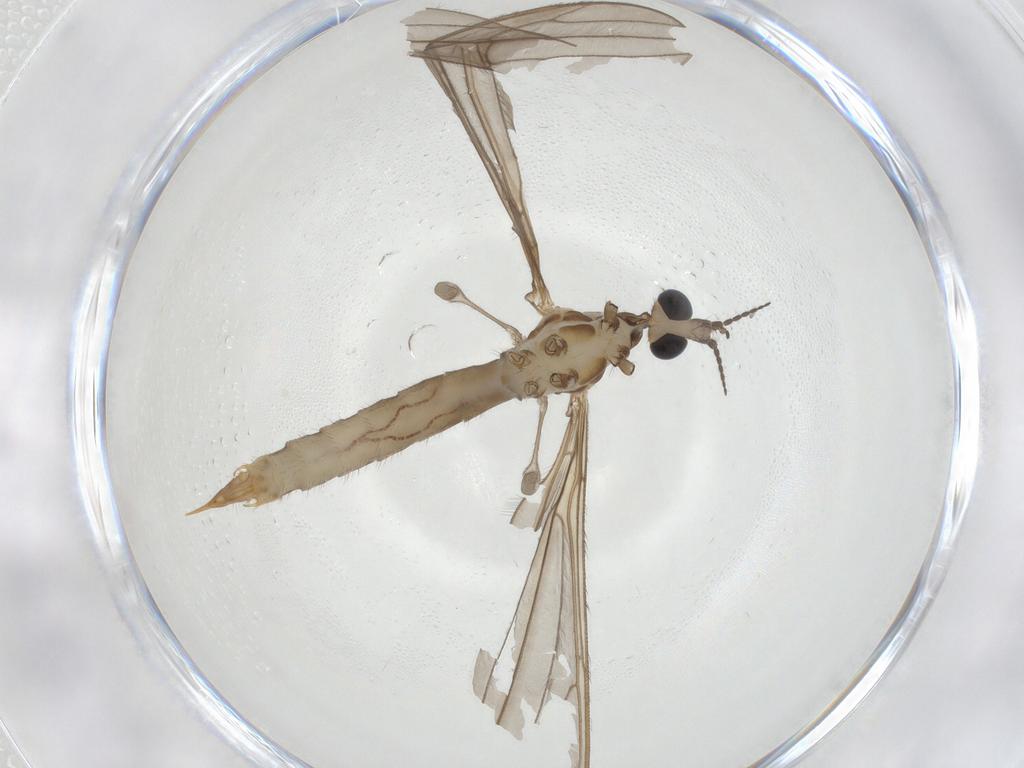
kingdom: Animalia
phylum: Arthropoda
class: Insecta
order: Diptera
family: Limoniidae
